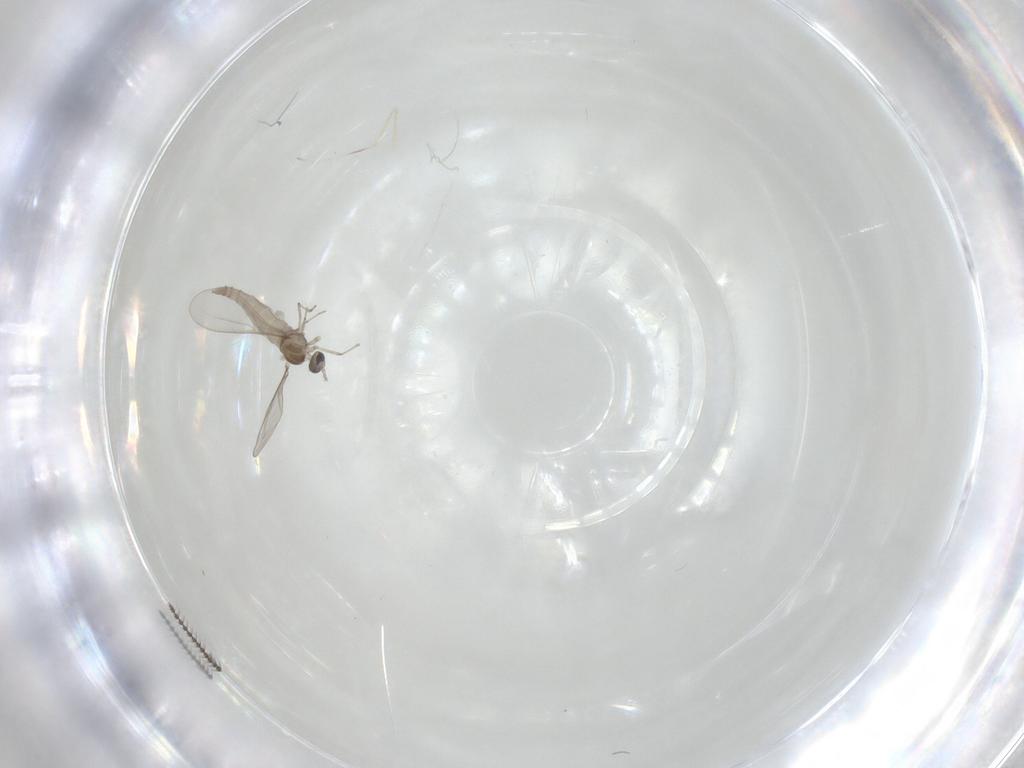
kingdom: Animalia
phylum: Arthropoda
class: Insecta
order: Diptera
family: Ceratopogonidae
